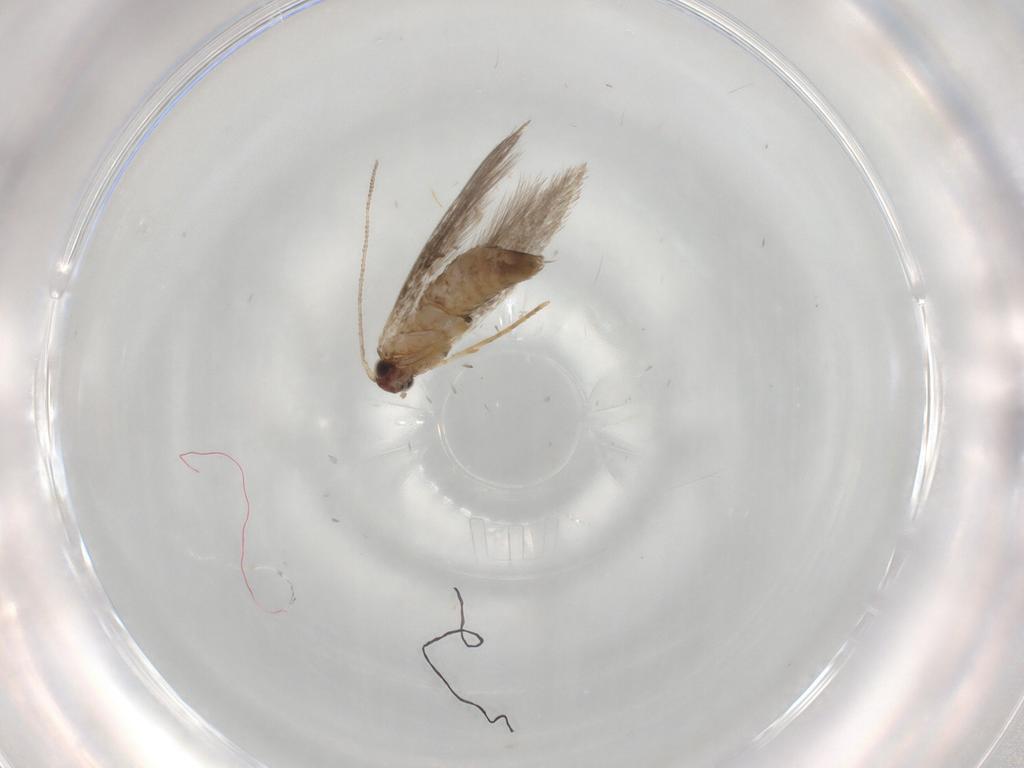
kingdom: Animalia
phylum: Arthropoda
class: Insecta
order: Lepidoptera
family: Tineidae
